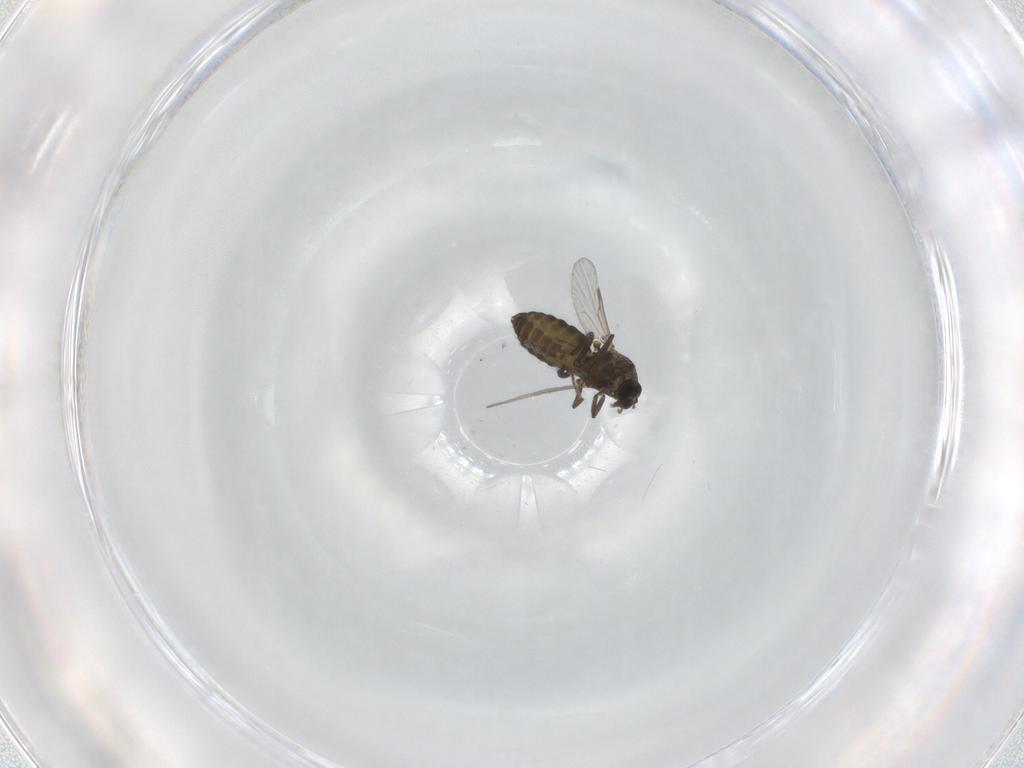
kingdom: Animalia
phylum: Arthropoda
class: Insecta
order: Diptera
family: Ceratopogonidae
